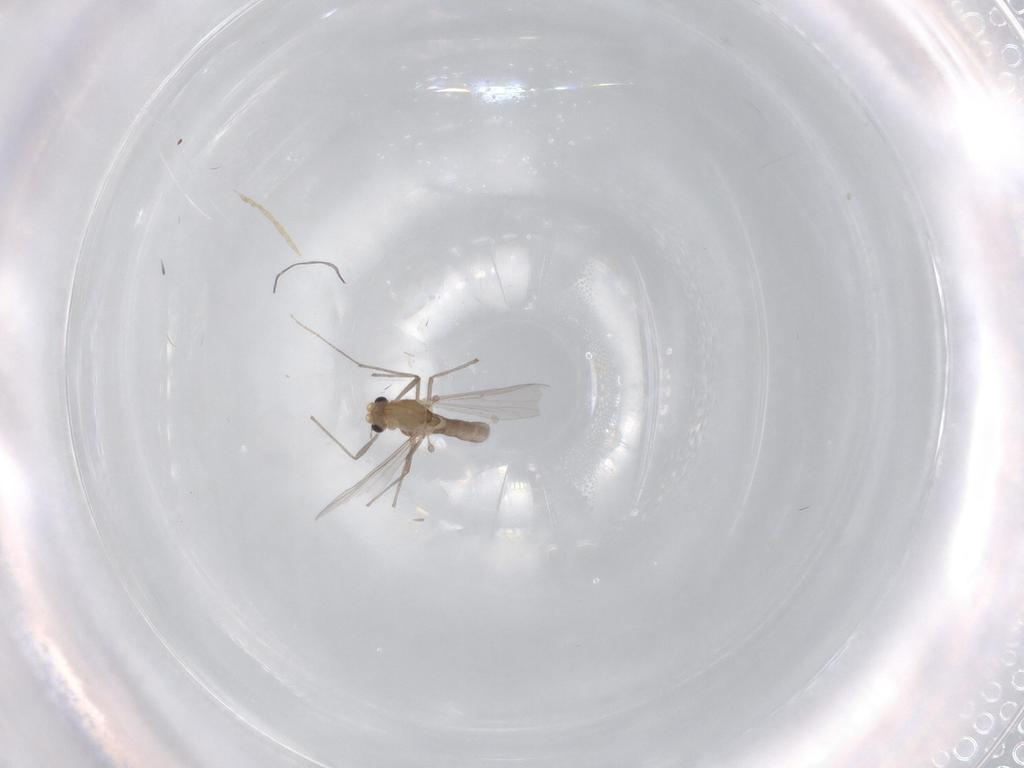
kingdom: Animalia
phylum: Arthropoda
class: Insecta
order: Diptera
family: Chironomidae
